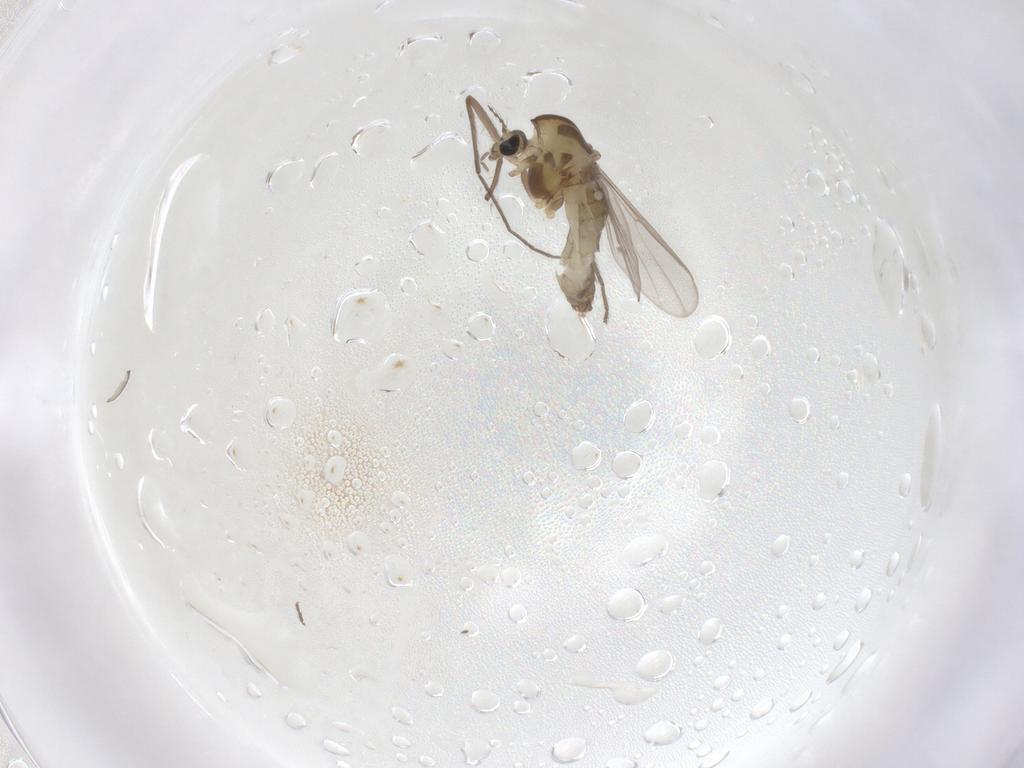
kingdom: Animalia
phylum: Arthropoda
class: Insecta
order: Diptera
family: Chironomidae
